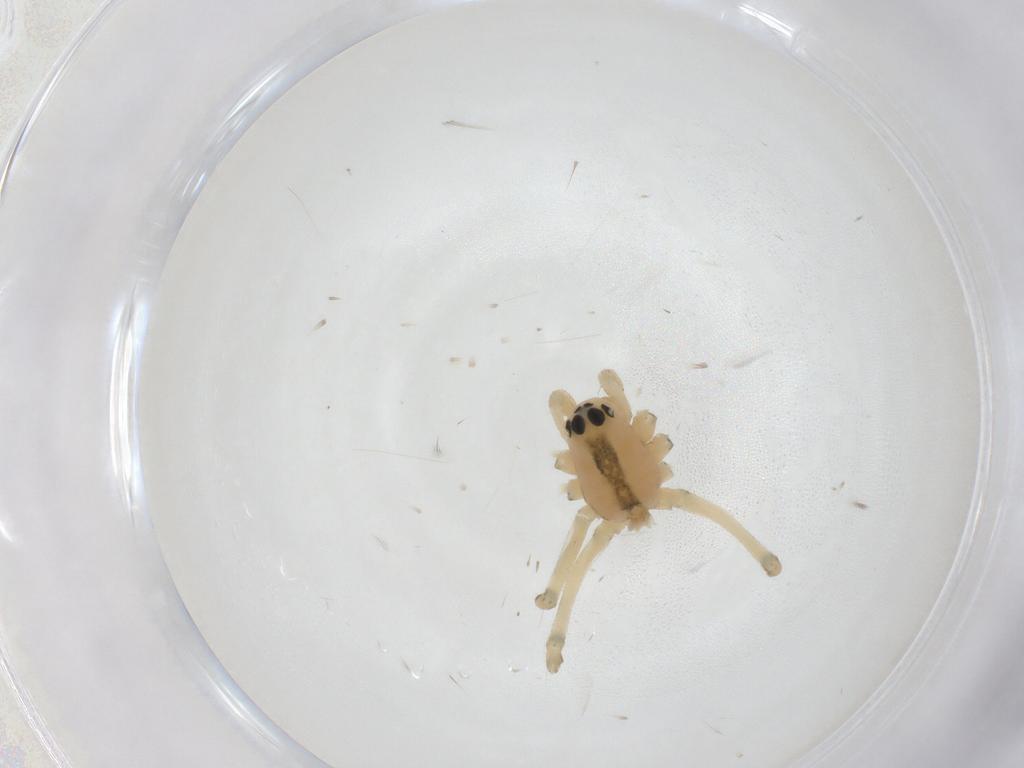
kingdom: Animalia
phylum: Arthropoda
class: Arachnida
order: Araneae
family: Linyphiidae
